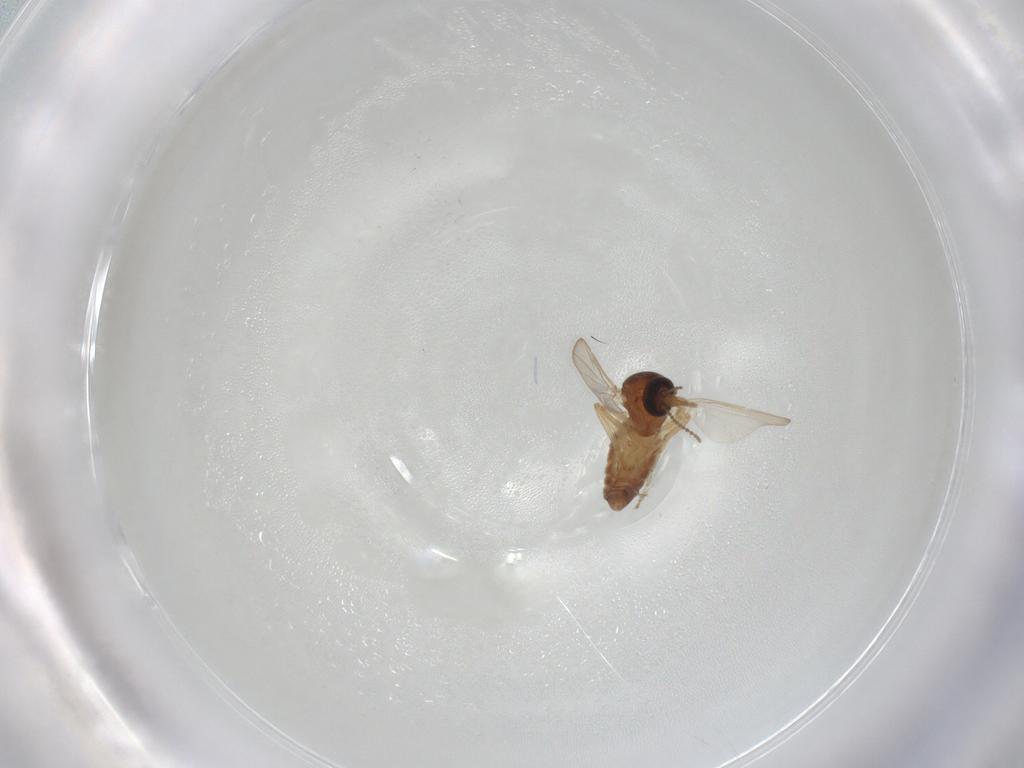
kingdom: Animalia
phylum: Arthropoda
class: Insecta
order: Diptera
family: Ceratopogonidae
